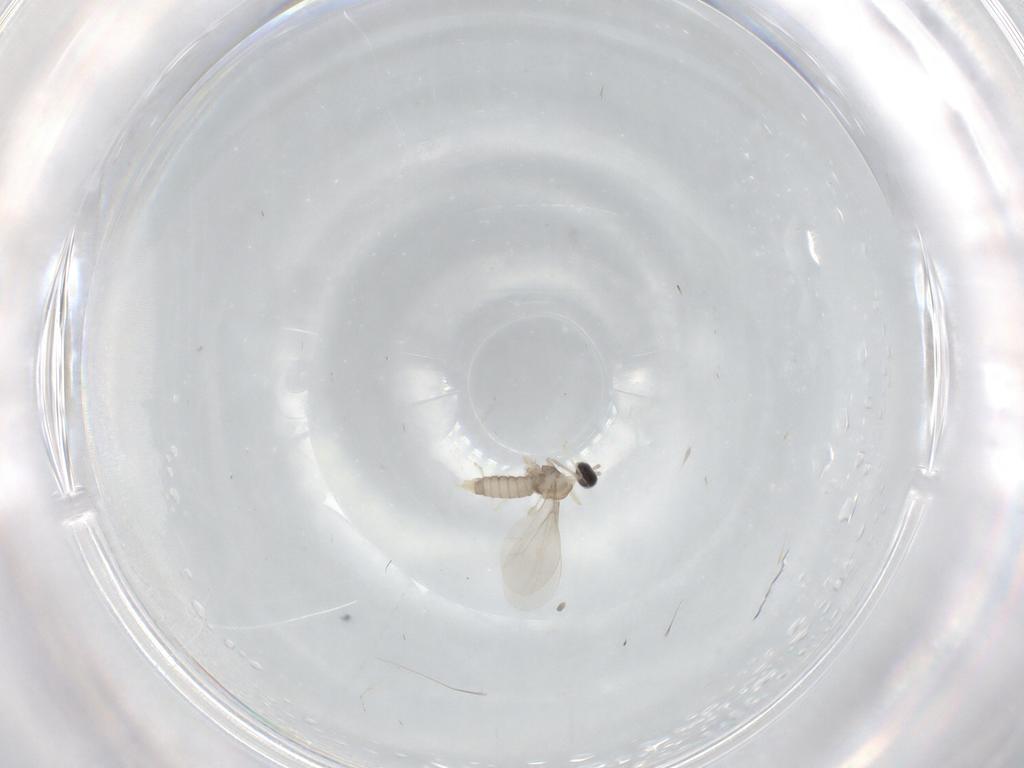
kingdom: Animalia
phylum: Arthropoda
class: Insecta
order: Diptera
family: Cecidomyiidae
